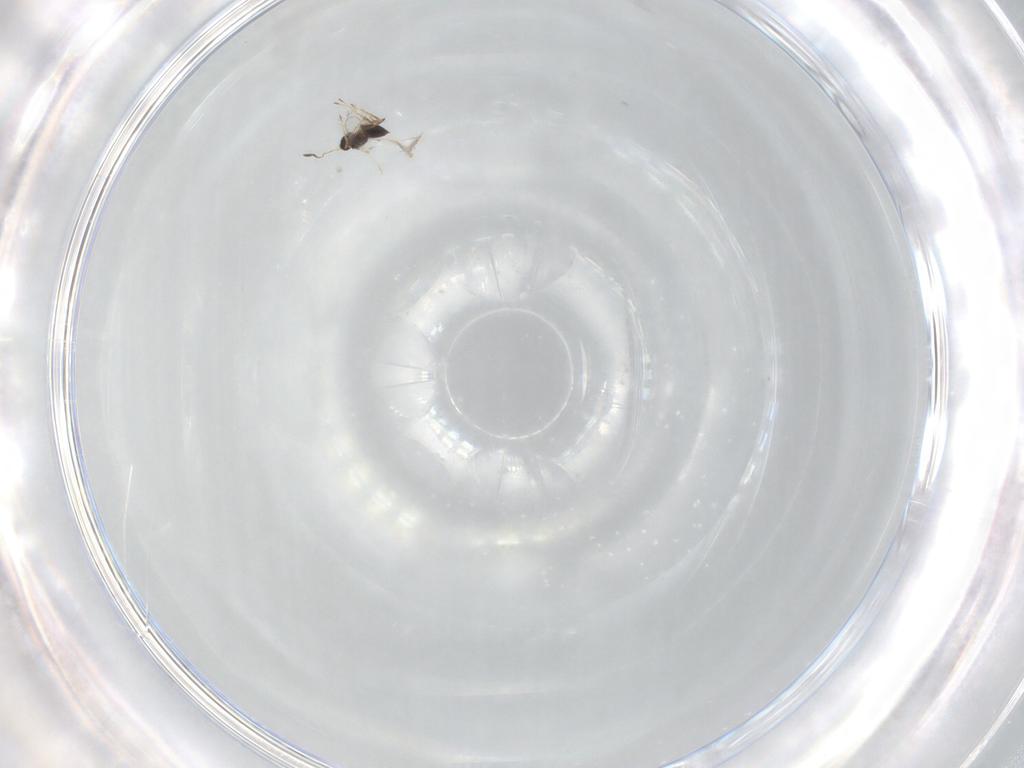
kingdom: Animalia
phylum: Arthropoda
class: Insecta
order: Hymenoptera
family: Mymaridae
